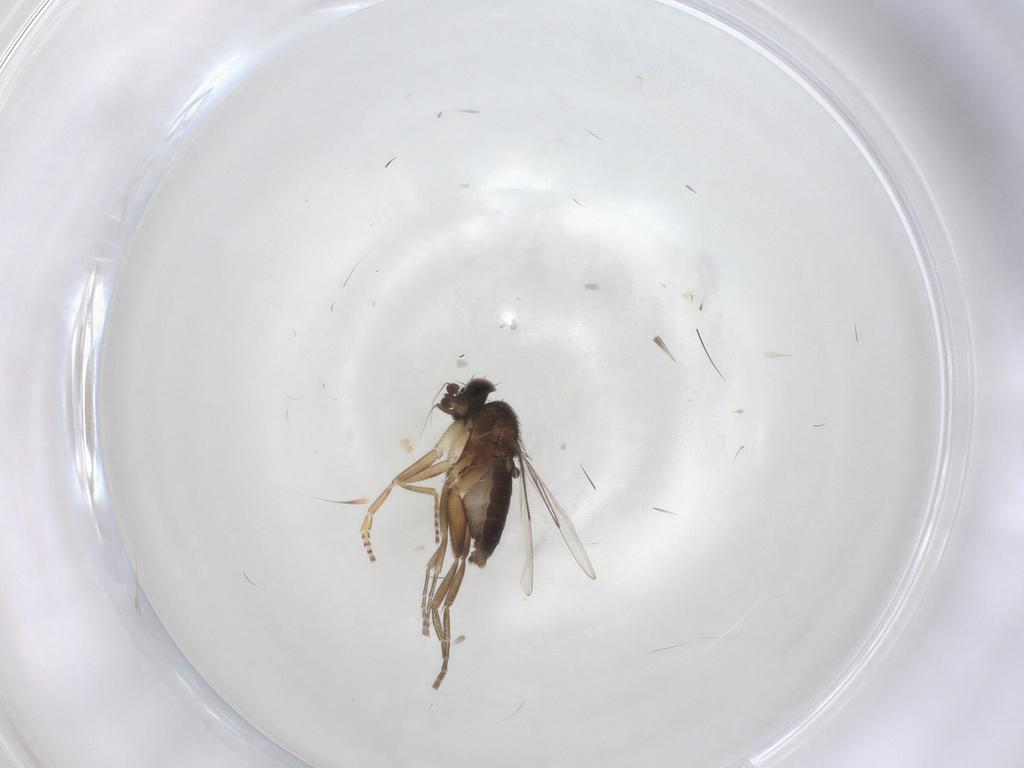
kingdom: Animalia
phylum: Arthropoda
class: Insecta
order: Diptera
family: Phoridae
